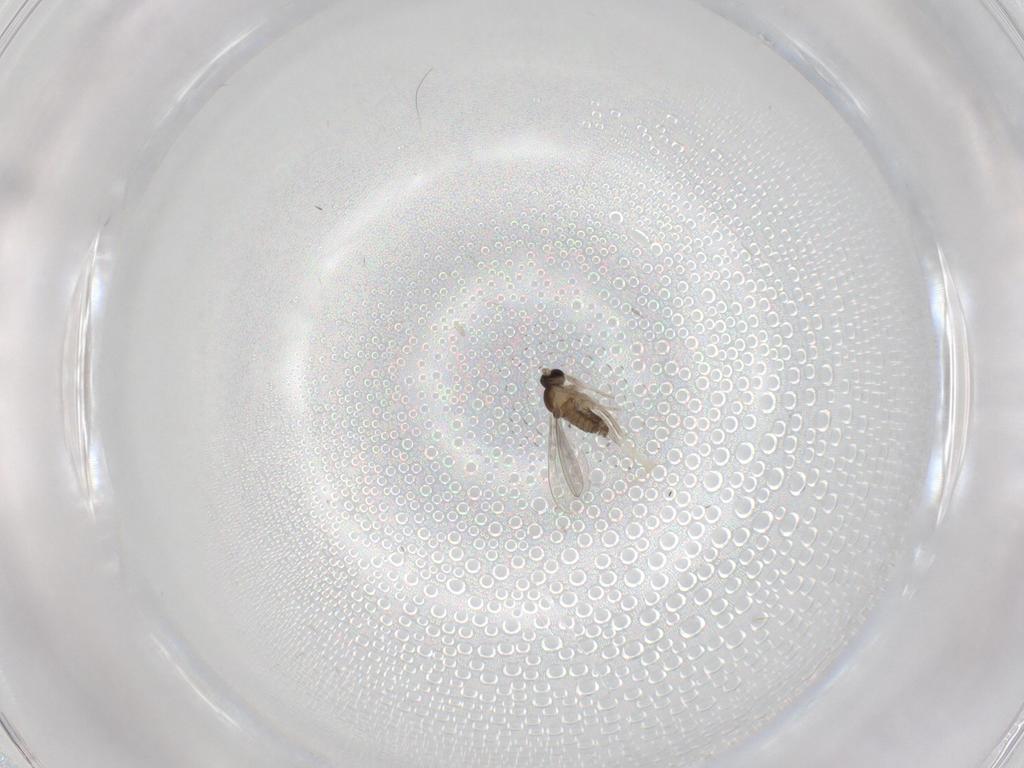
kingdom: Animalia
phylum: Arthropoda
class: Insecta
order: Diptera
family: Cecidomyiidae
